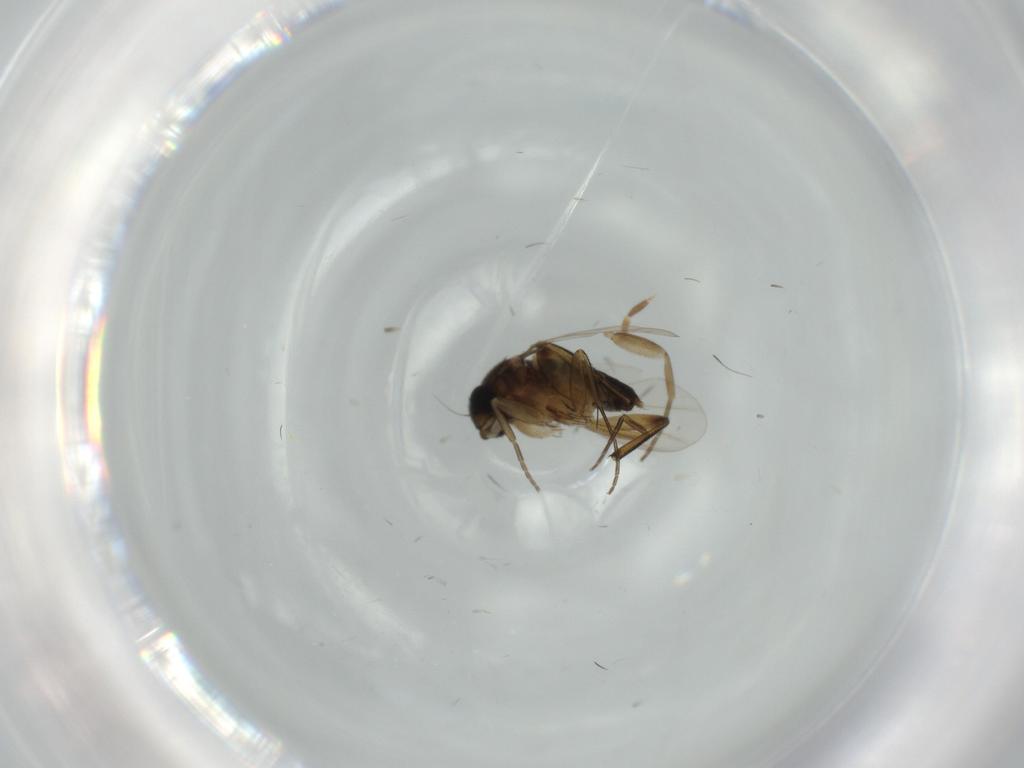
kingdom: Animalia
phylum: Arthropoda
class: Insecta
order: Diptera
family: Phoridae
